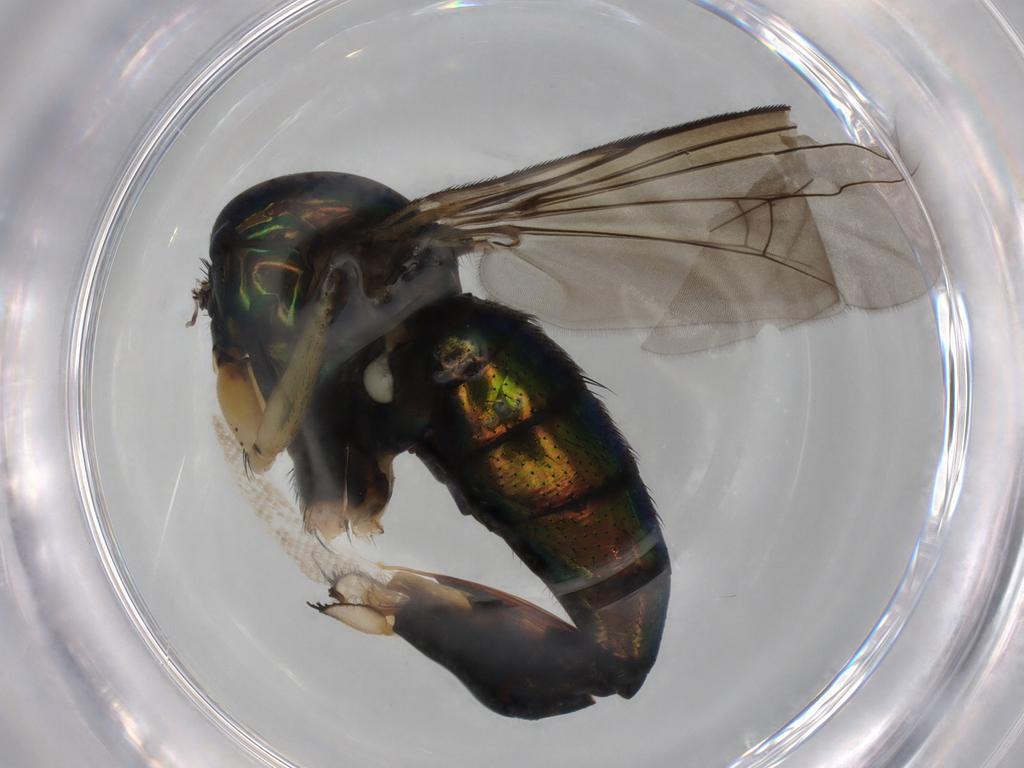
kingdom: Animalia
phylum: Arthropoda
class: Insecta
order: Diptera
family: Dolichopodidae
